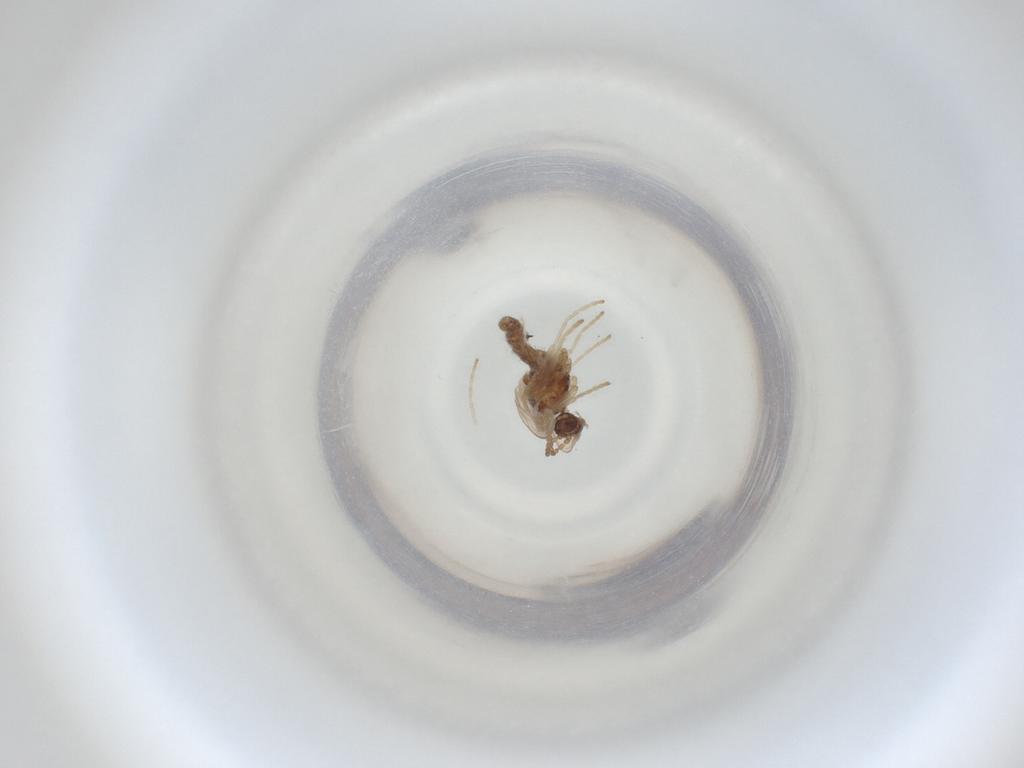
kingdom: Animalia
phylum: Arthropoda
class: Insecta
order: Diptera
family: Cecidomyiidae
